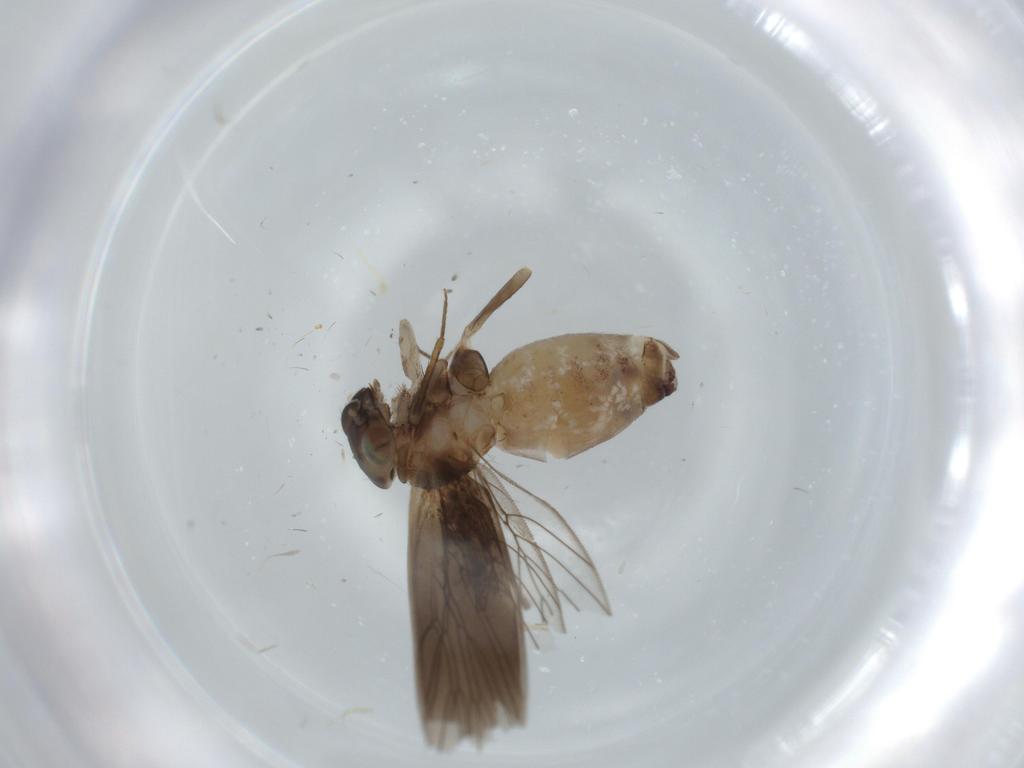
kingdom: Animalia
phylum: Arthropoda
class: Insecta
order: Psocodea
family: Lepidopsocidae
